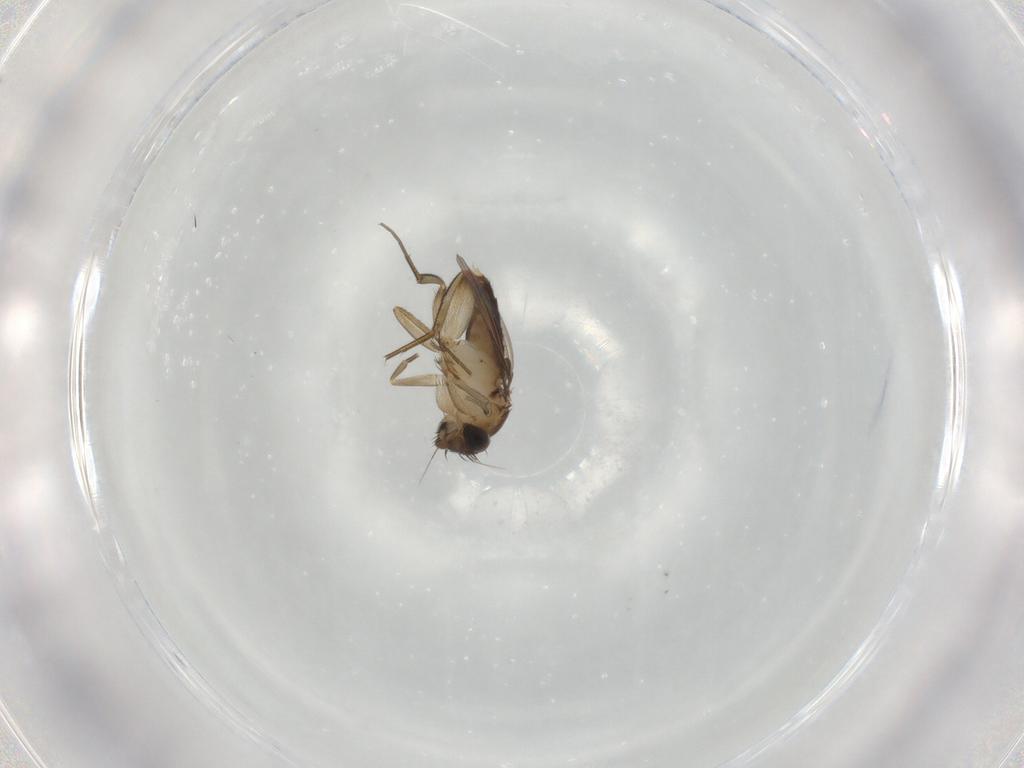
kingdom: Animalia
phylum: Arthropoda
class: Insecta
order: Diptera
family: Phoridae
